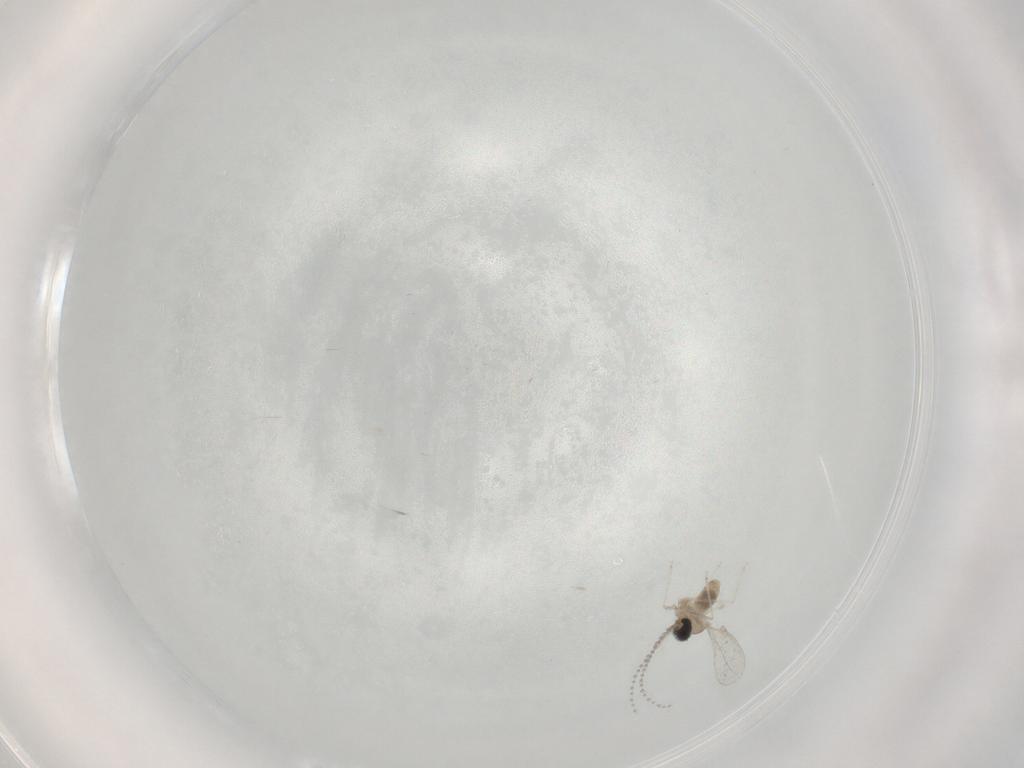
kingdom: Animalia
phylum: Arthropoda
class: Insecta
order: Diptera
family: Cecidomyiidae
